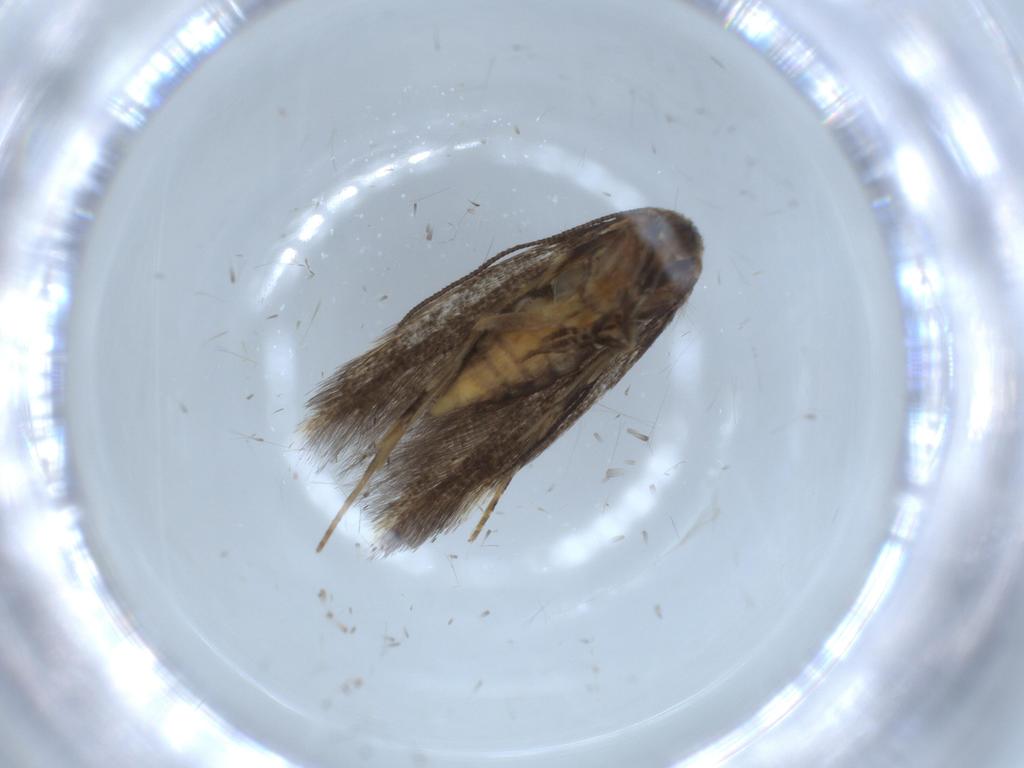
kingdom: Animalia
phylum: Arthropoda
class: Insecta
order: Lepidoptera
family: Elachistidae
